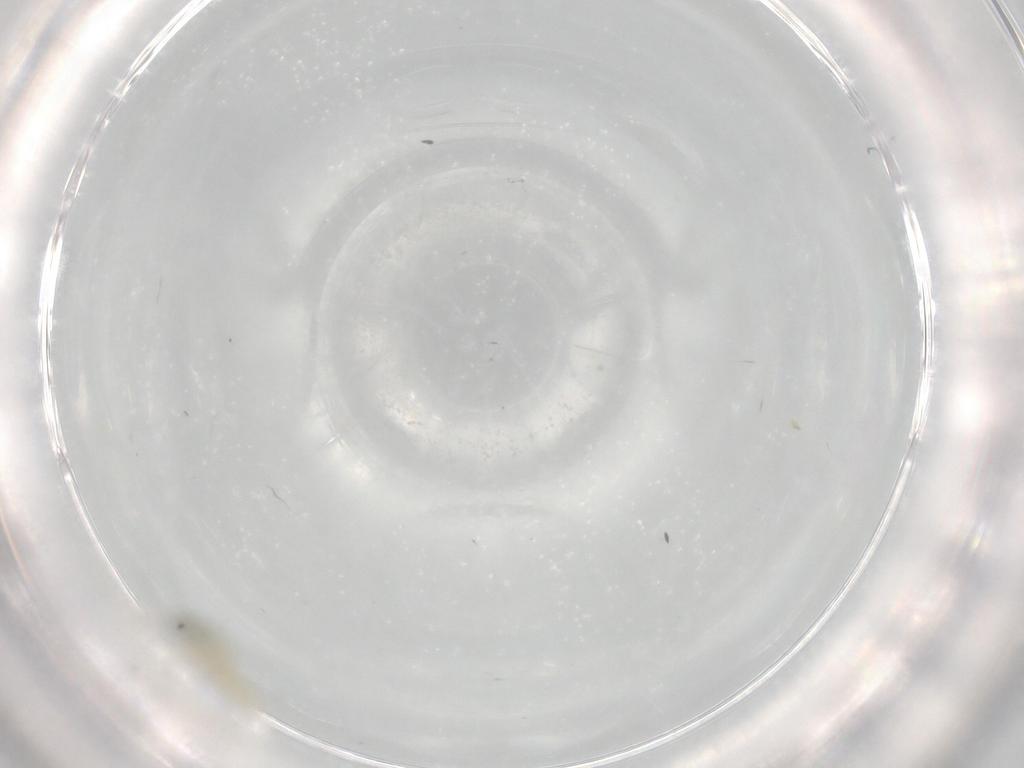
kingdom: Animalia
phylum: Arthropoda
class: Insecta
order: Diptera
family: Cecidomyiidae
